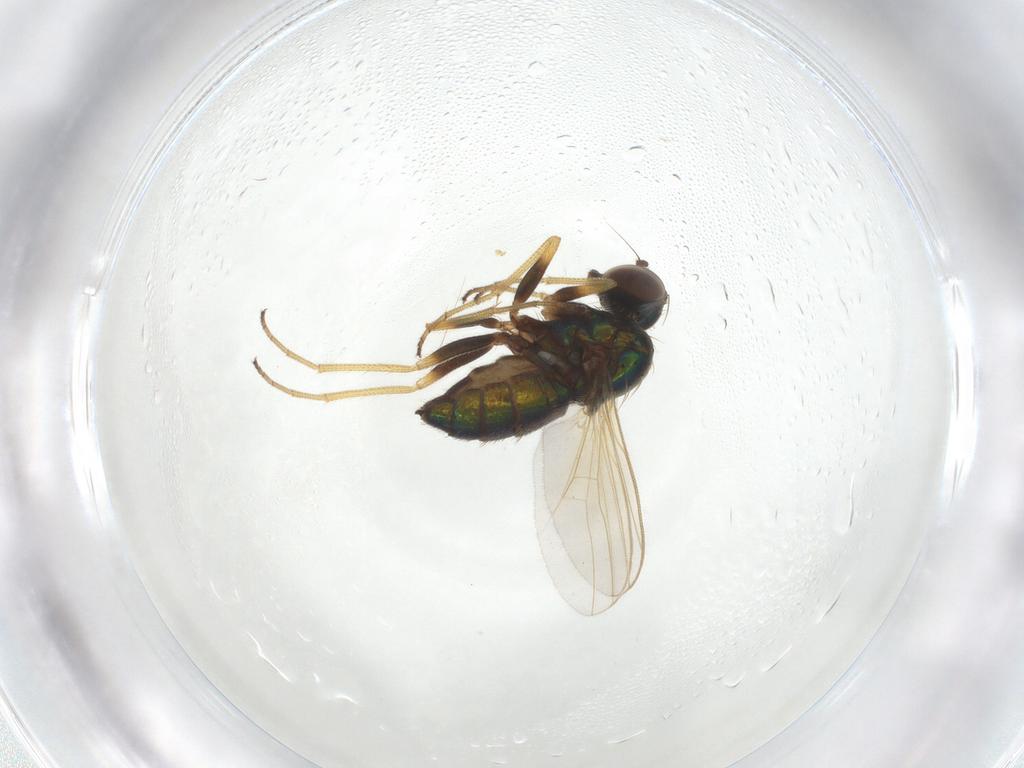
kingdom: Animalia
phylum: Arthropoda
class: Insecta
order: Diptera
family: Dolichopodidae
